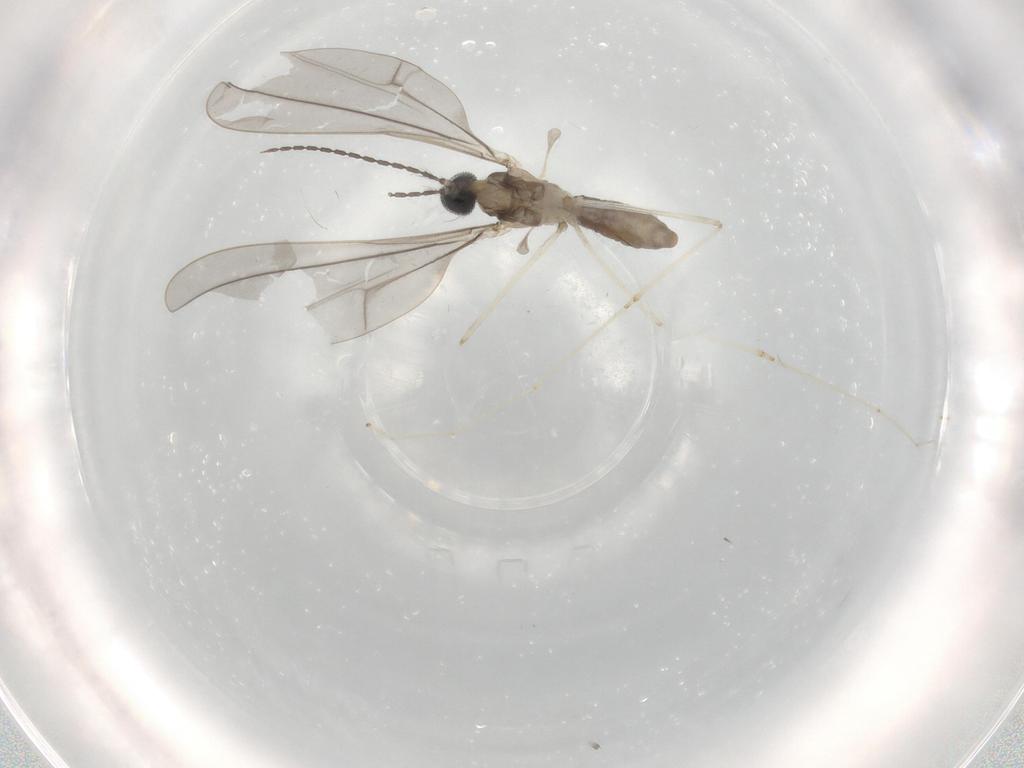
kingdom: Animalia
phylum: Arthropoda
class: Insecta
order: Diptera
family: Cecidomyiidae
